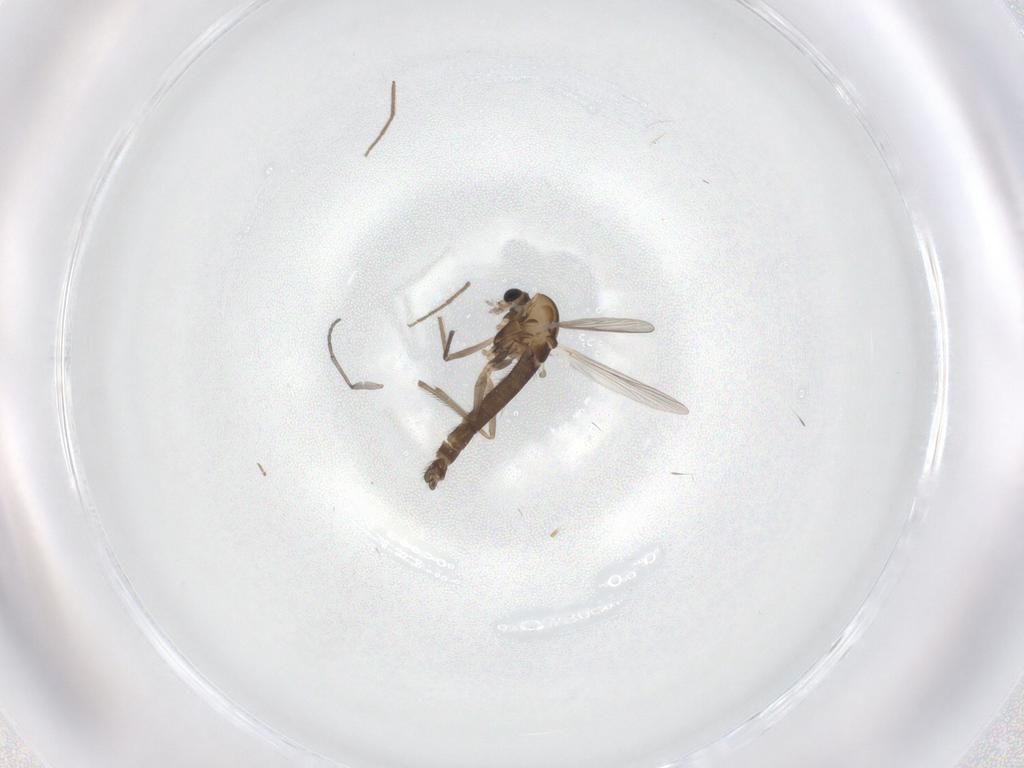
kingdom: Animalia
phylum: Arthropoda
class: Insecta
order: Diptera
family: Chironomidae
